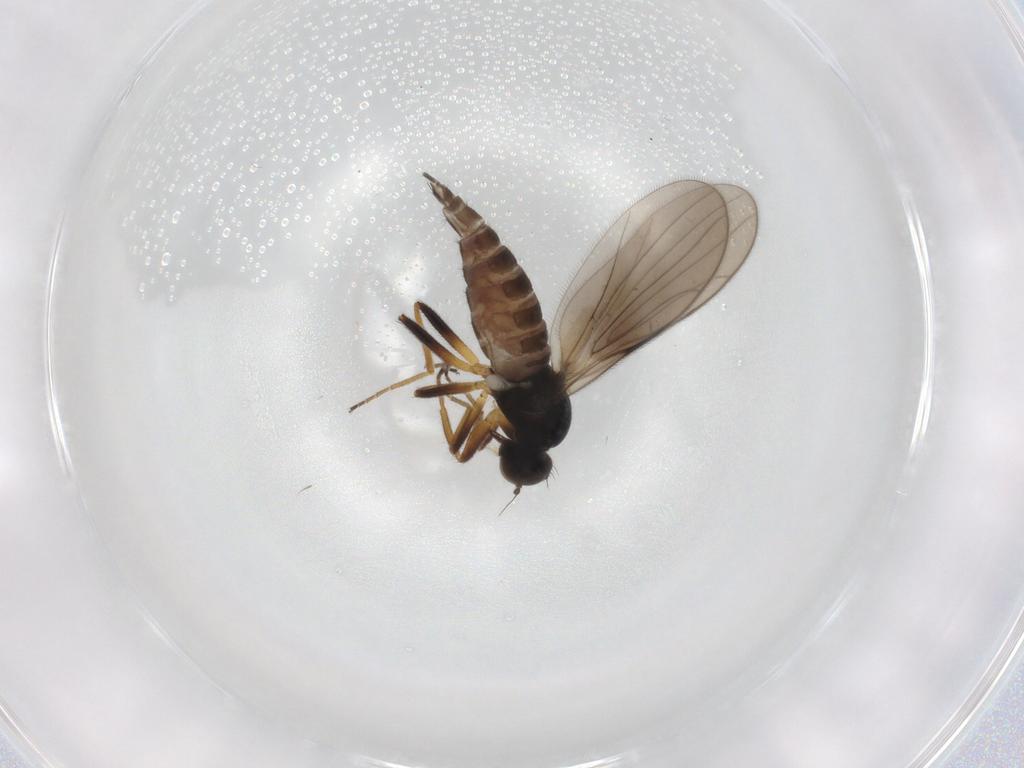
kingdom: Animalia
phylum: Arthropoda
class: Insecta
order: Diptera
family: Hybotidae
